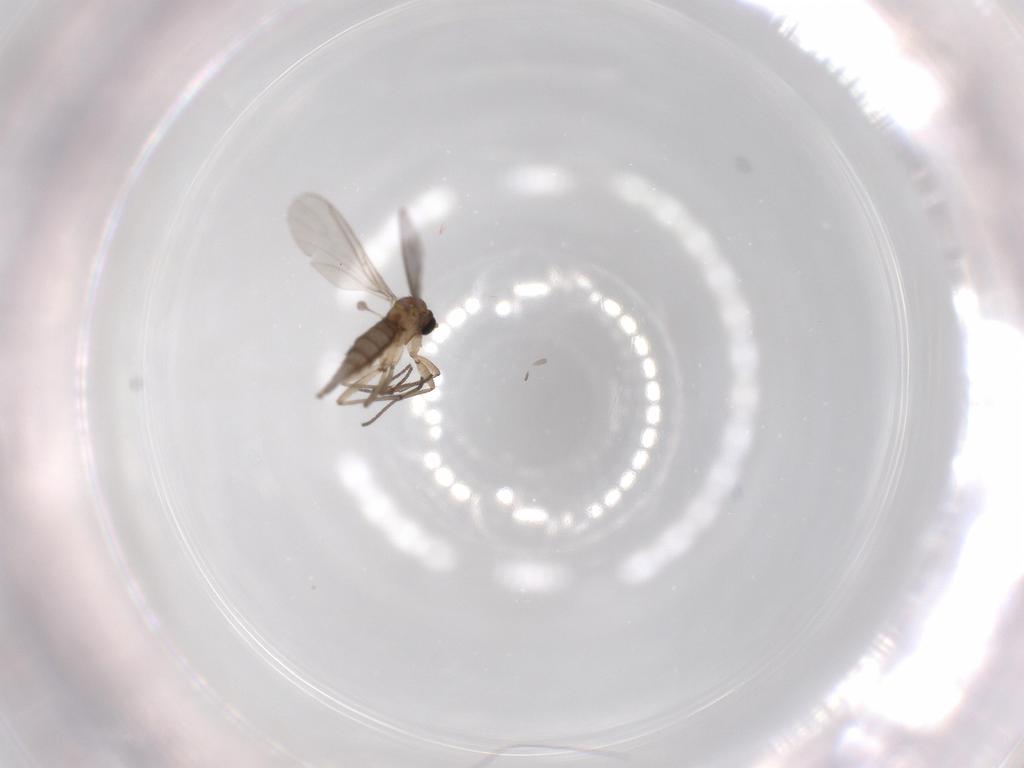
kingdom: Animalia
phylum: Arthropoda
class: Insecta
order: Diptera
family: Sciaridae
